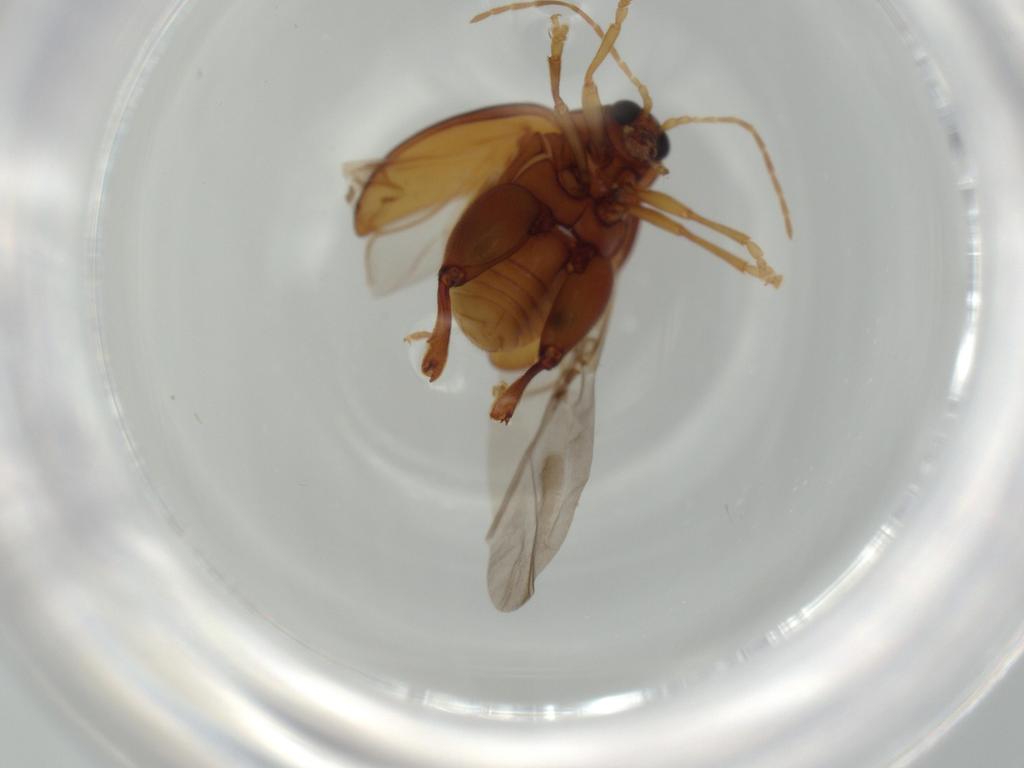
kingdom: Animalia
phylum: Arthropoda
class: Insecta
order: Coleoptera
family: Chrysomelidae
